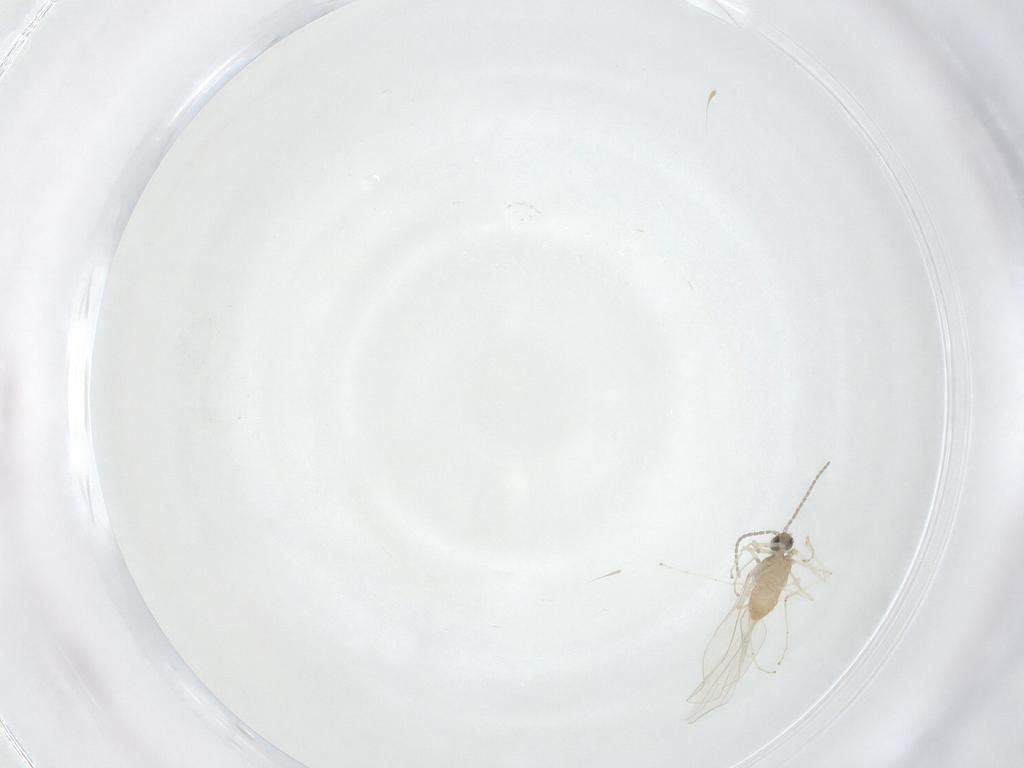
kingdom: Animalia
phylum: Arthropoda
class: Insecta
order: Diptera
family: Cecidomyiidae
